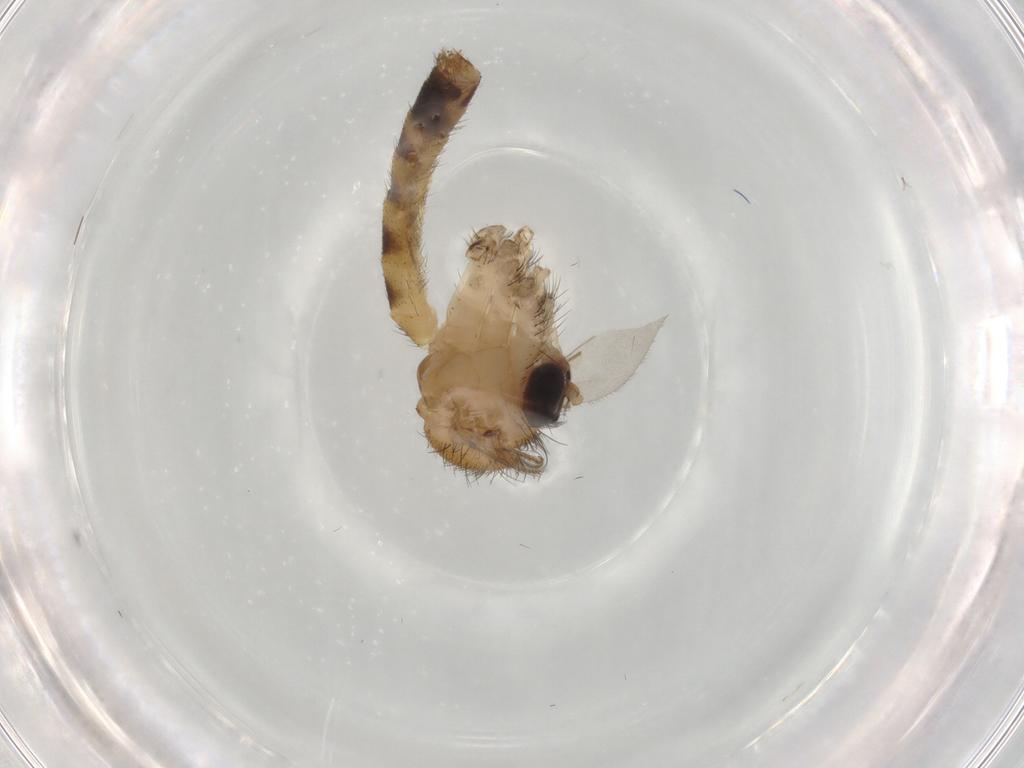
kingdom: Animalia
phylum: Arthropoda
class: Insecta
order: Diptera
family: Mycetophilidae
